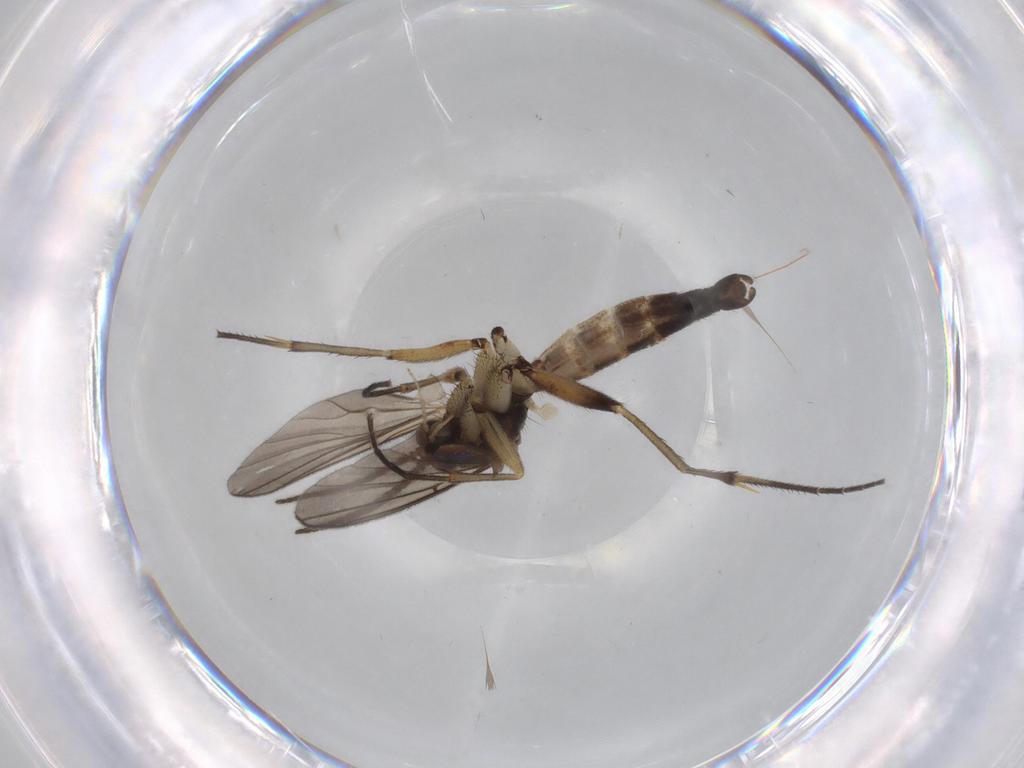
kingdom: Animalia
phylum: Arthropoda
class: Insecta
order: Diptera
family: Mycetophilidae
